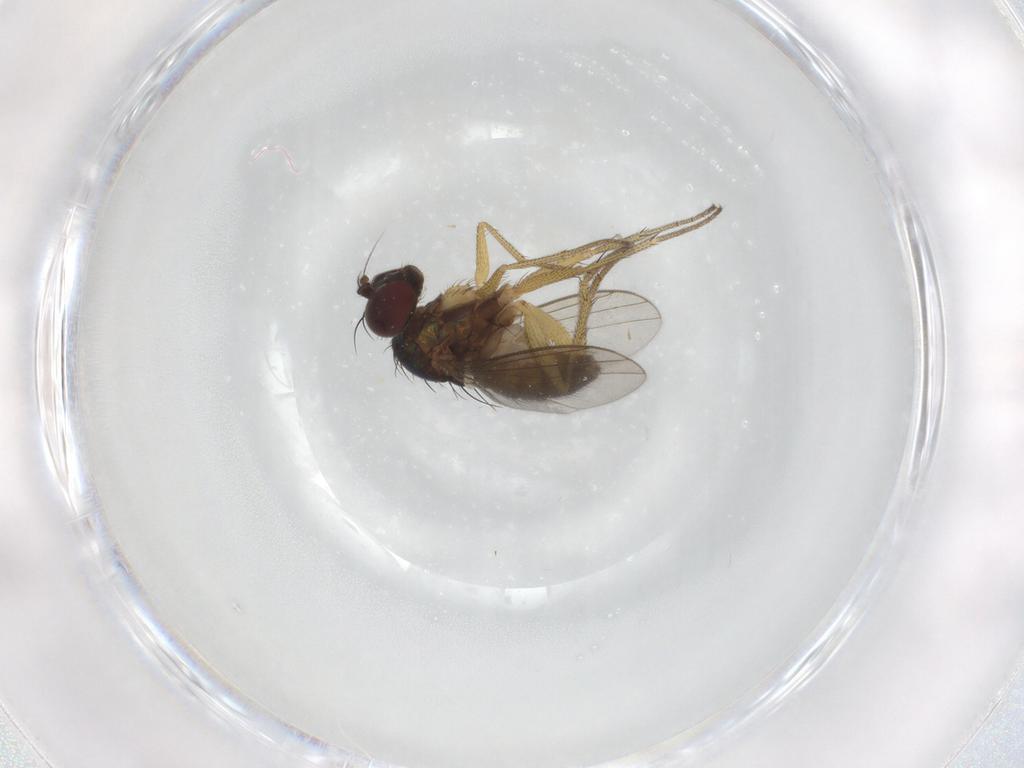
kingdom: Animalia
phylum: Arthropoda
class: Insecta
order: Diptera
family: Dolichopodidae
